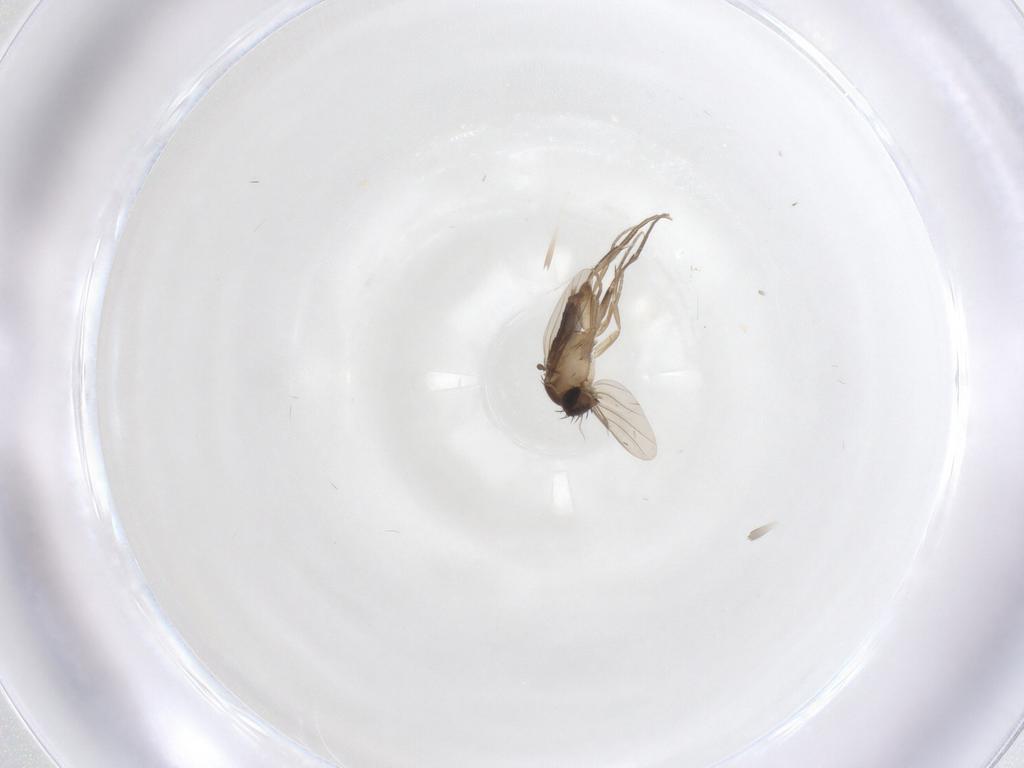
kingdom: Animalia
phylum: Arthropoda
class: Insecta
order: Diptera
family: Phoridae
